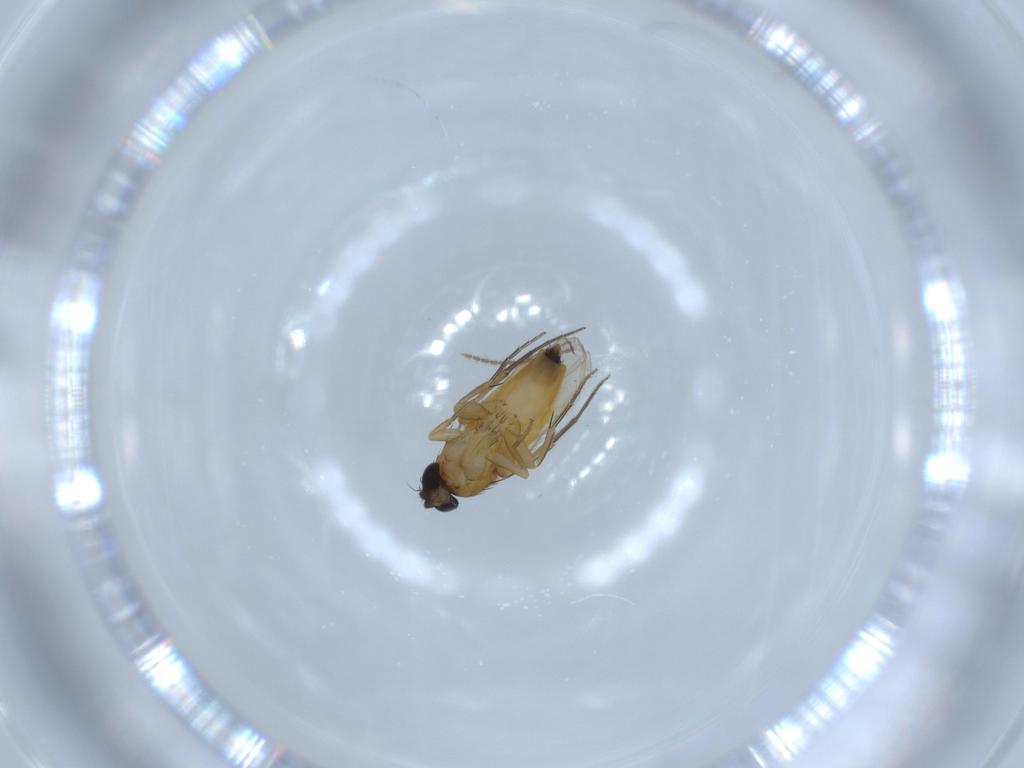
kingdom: Animalia
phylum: Arthropoda
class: Insecta
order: Diptera
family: Phoridae
